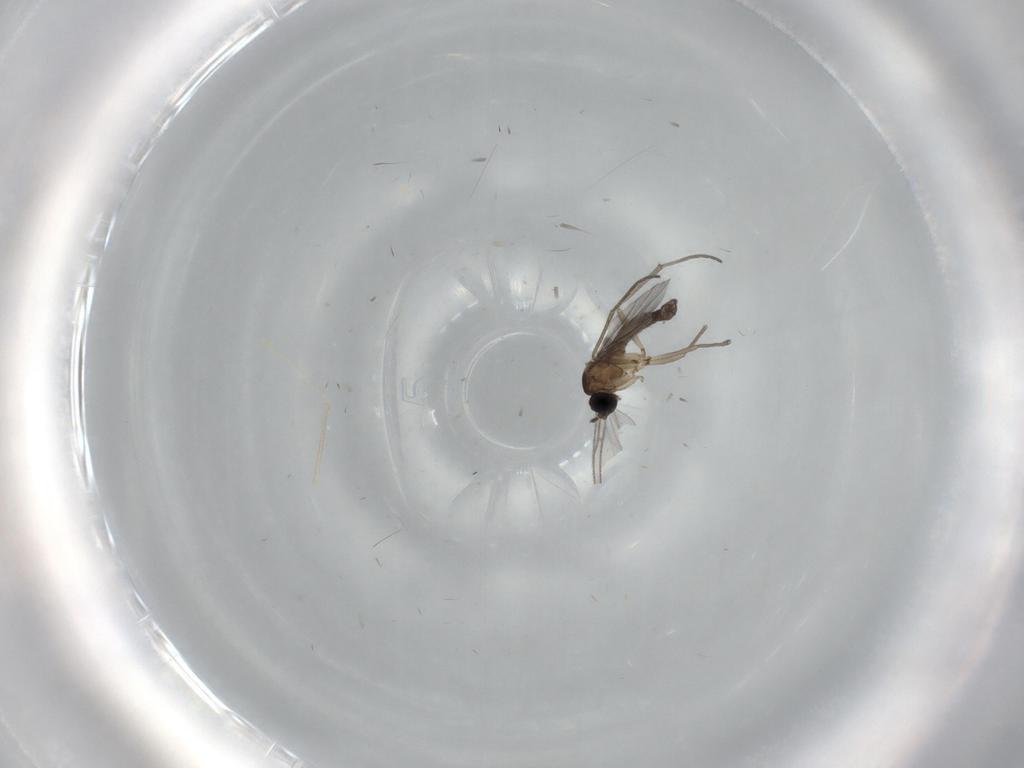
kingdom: Animalia
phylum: Arthropoda
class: Insecta
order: Diptera
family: Sciaridae
